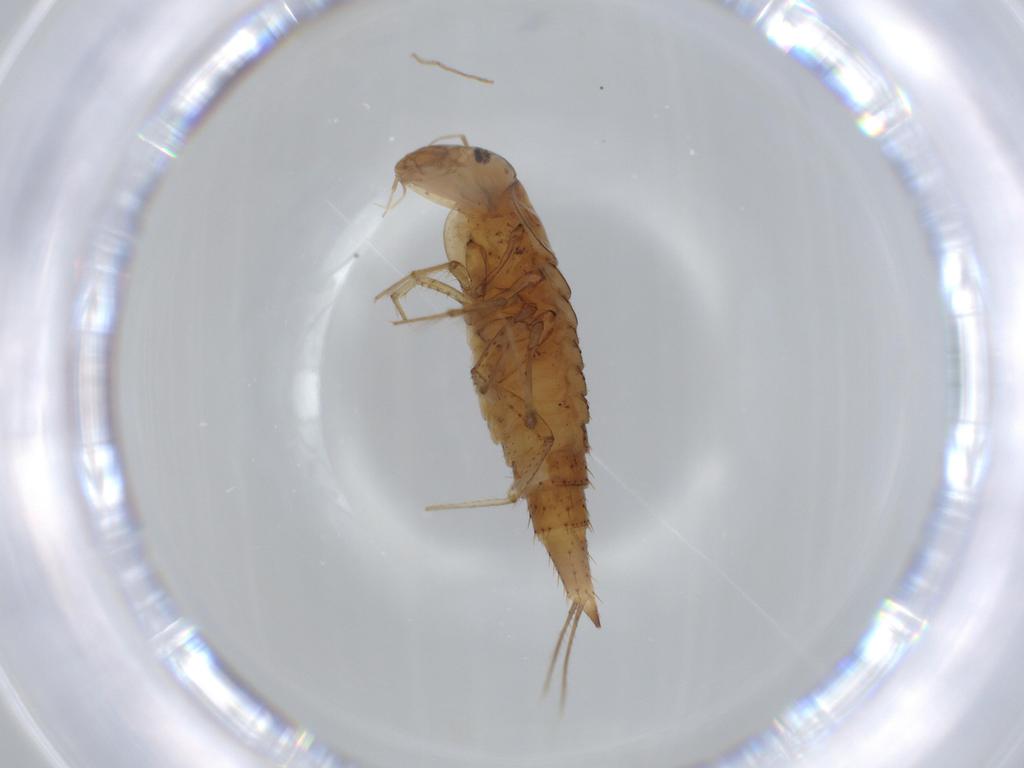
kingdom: Animalia
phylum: Arthropoda
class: Insecta
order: Coleoptera
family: Dytiscidae
